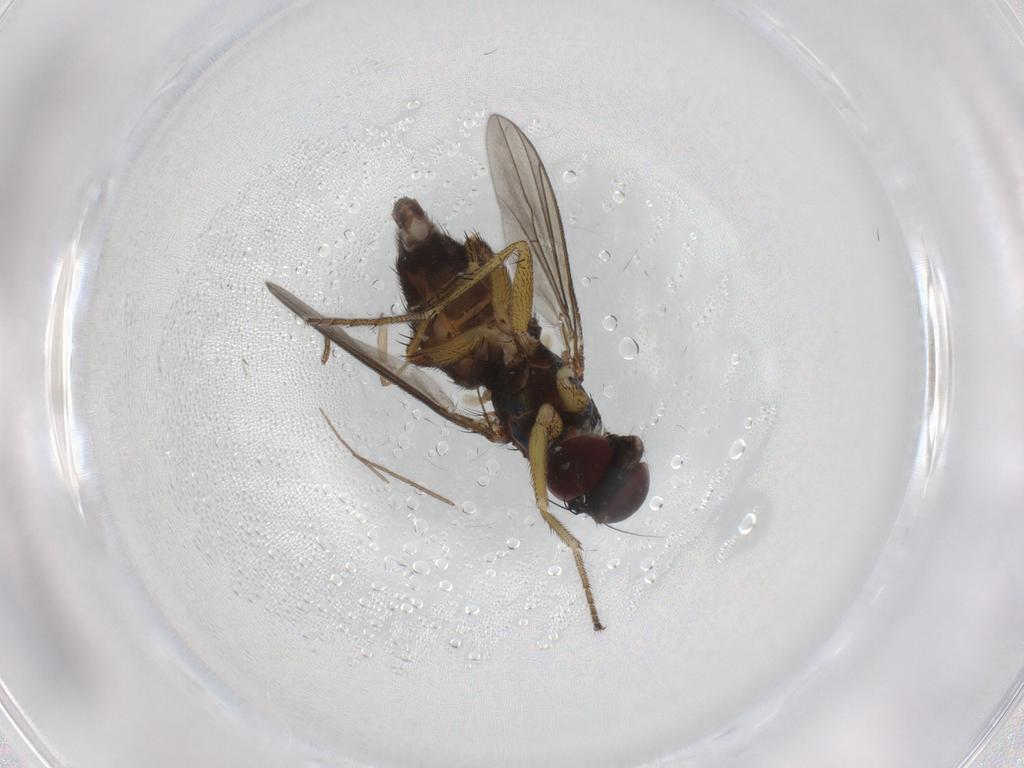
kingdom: Animalia
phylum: Arthropoda
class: Insecta
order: Diptera
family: Dolichopodidae
